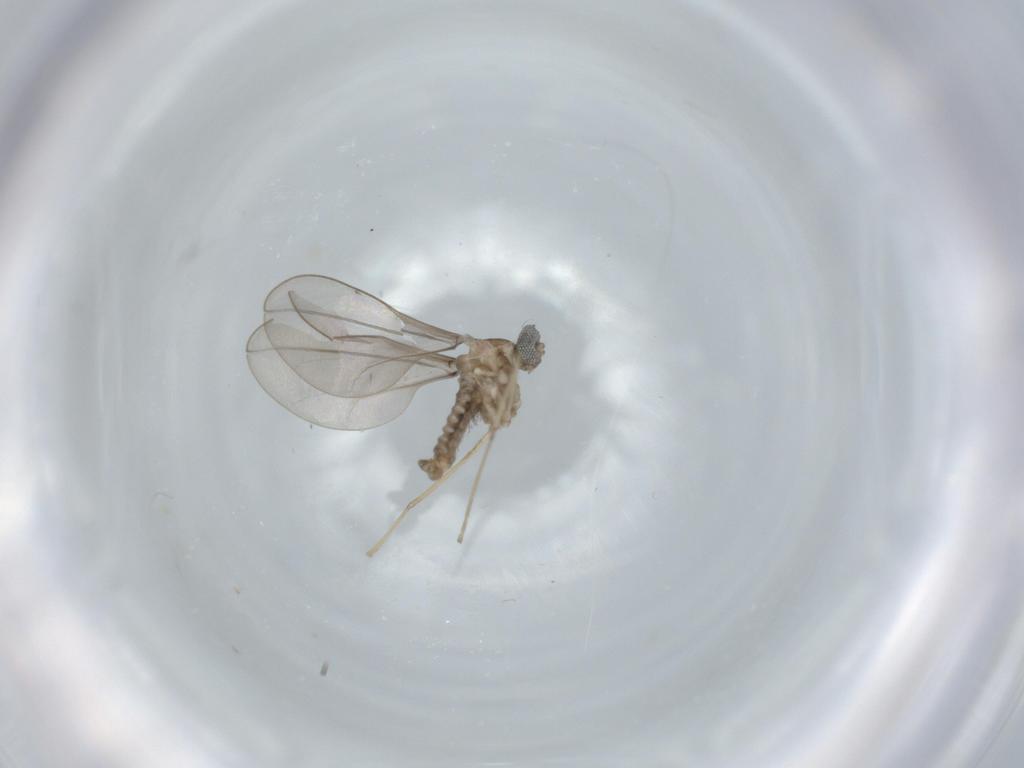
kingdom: Animalia
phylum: Arthropoda
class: Insecta
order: Diptera
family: Cecidomyiidae
